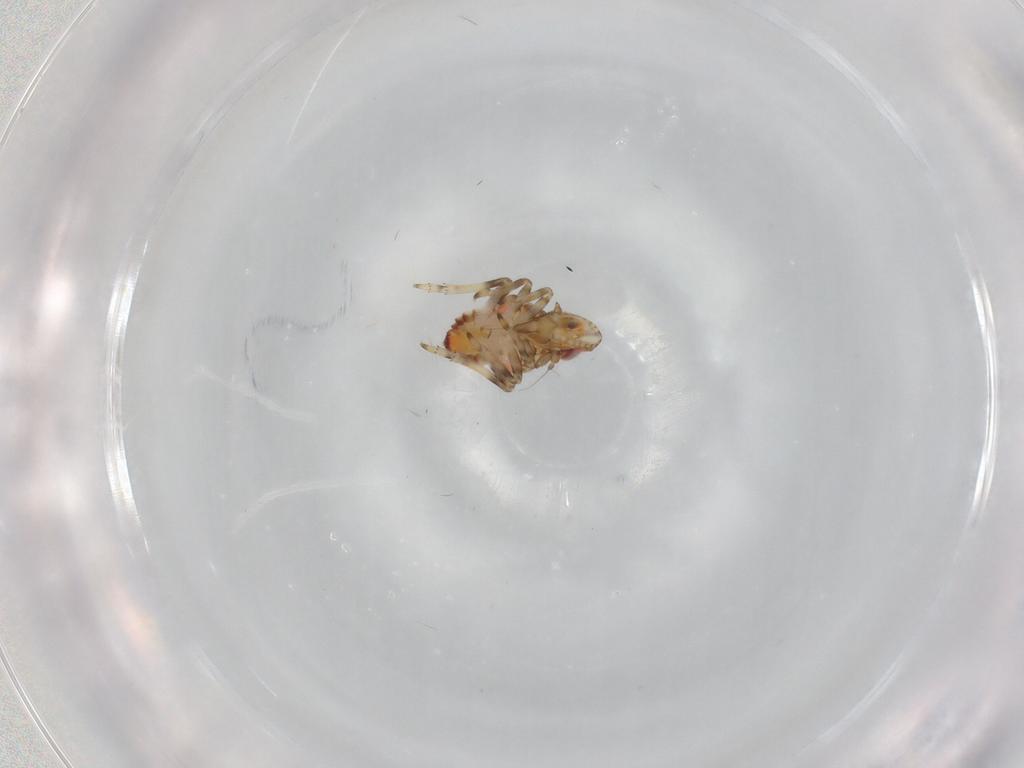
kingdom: Animalia
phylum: Arthropoda
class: Insecta
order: Hemiptera
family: Tropiduchidae
